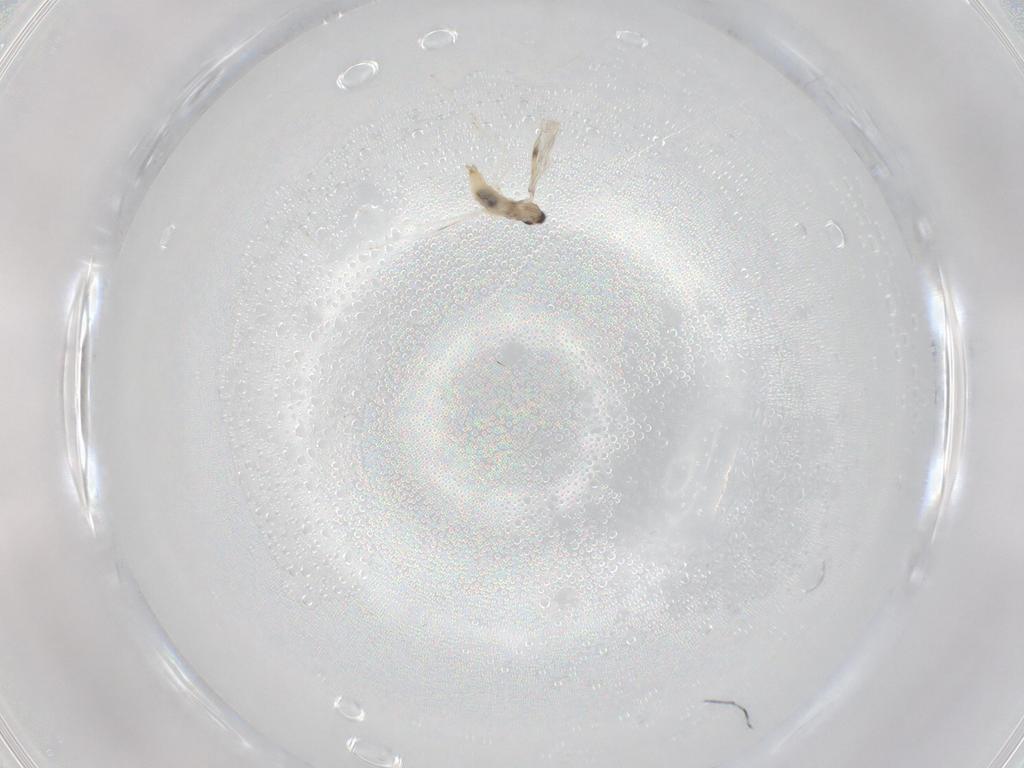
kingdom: Animalia
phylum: Arthropoda
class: Insecta
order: Diptera
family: Cecidomyiidae
